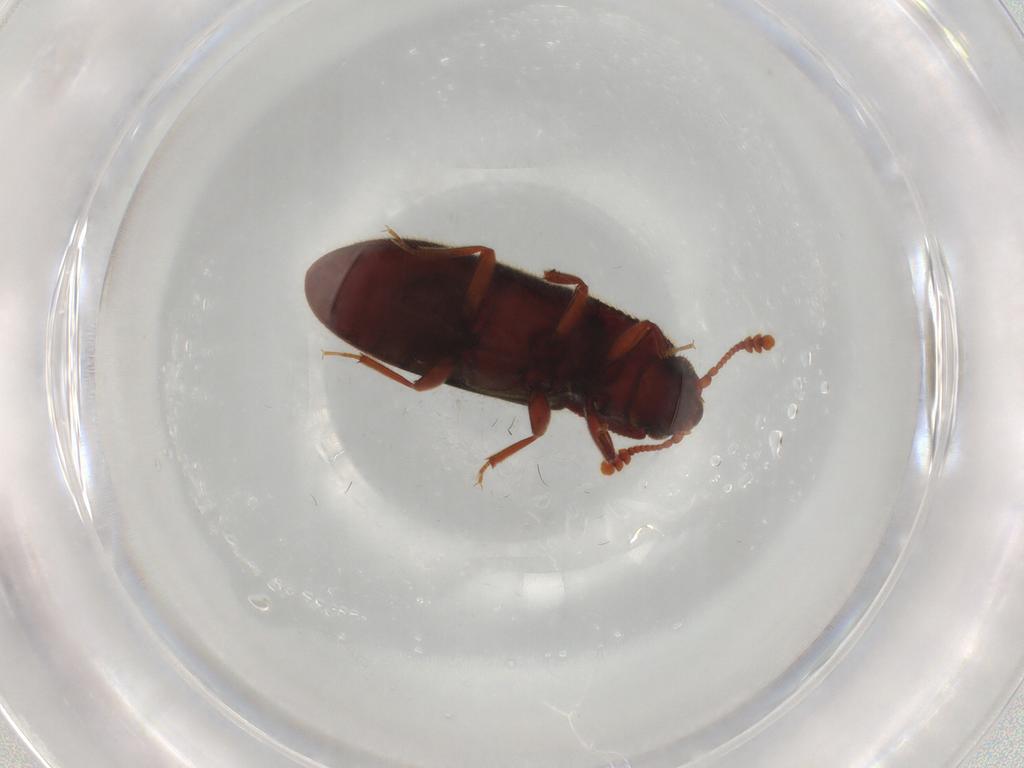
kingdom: Animalia
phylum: Arthropoda
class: Insecta
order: Coleoptera
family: Biphyllidae
